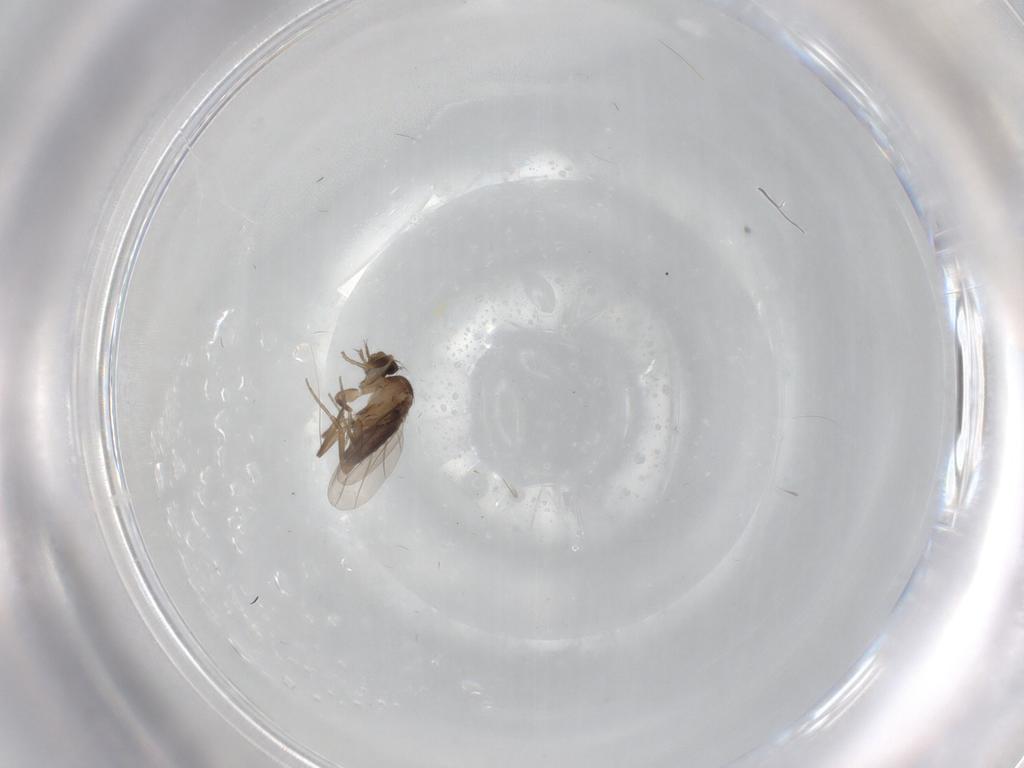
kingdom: Animalia
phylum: Arthropoda
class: Insecta
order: Diptera
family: Phoridae
